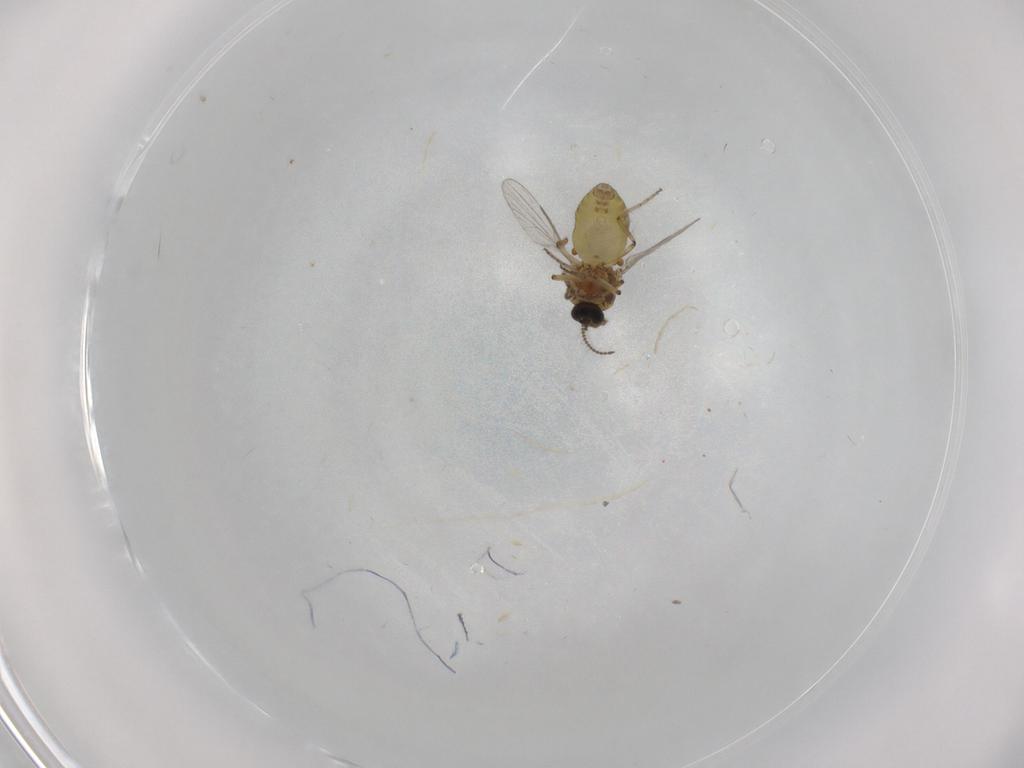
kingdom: Animalia
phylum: Arthropoda
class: Insecta
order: Diptera
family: Ceratopogonidae
